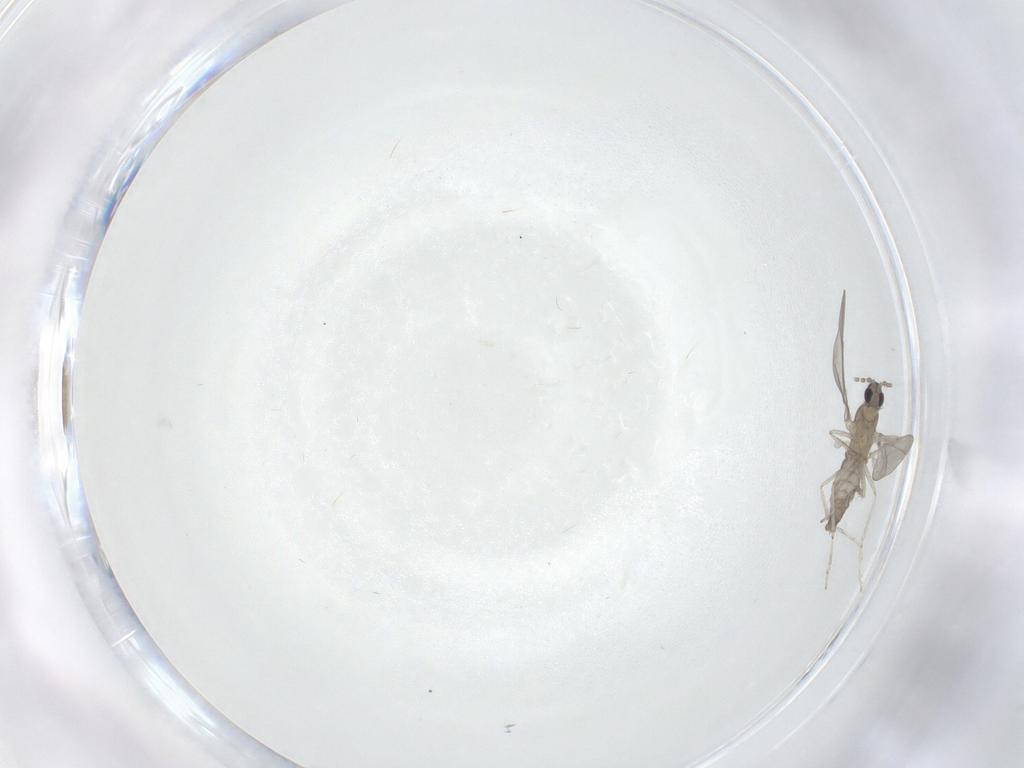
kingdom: Animalia
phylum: Arthropoda
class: Insecta
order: Diptera
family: Cecidomyiidae
